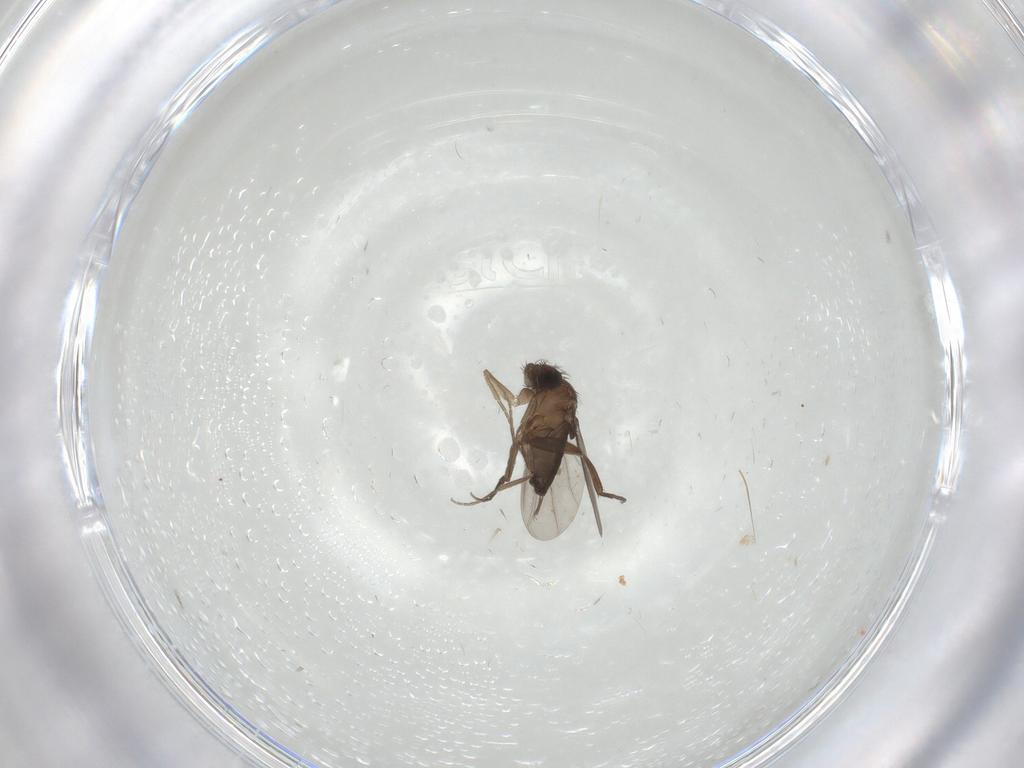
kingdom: Animalia
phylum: Arthropoda
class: Insecta
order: Diptera
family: Phoridae
